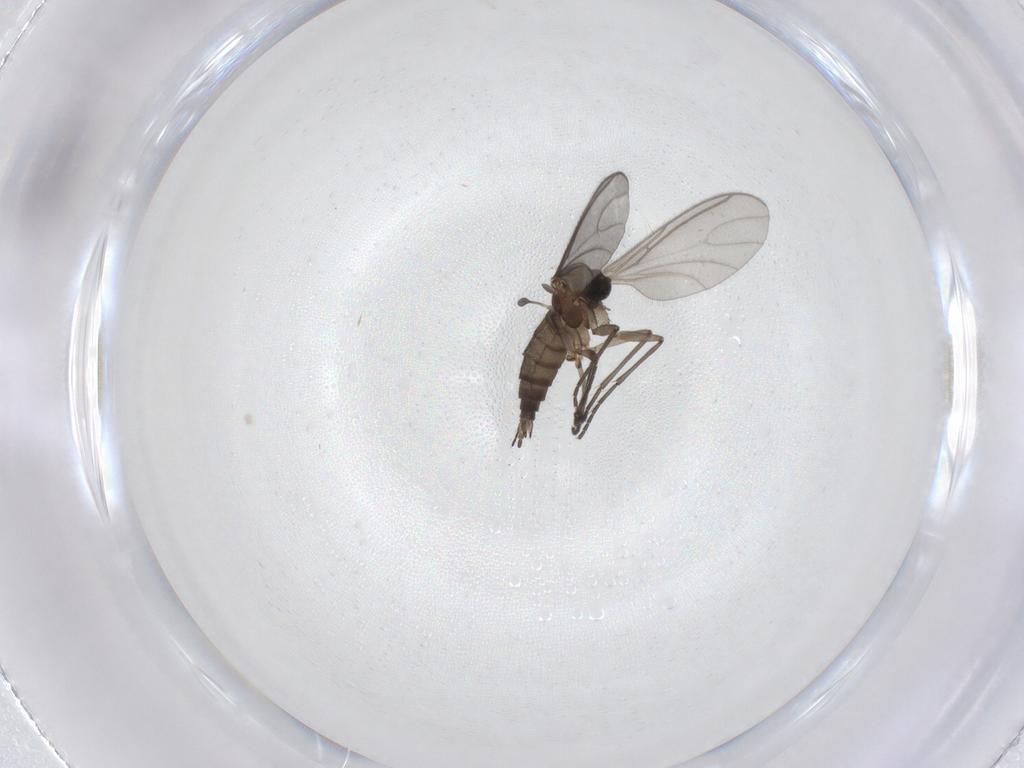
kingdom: Animalia
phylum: Arthropoda
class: Insecta
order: Diptera
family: Sciaridae
